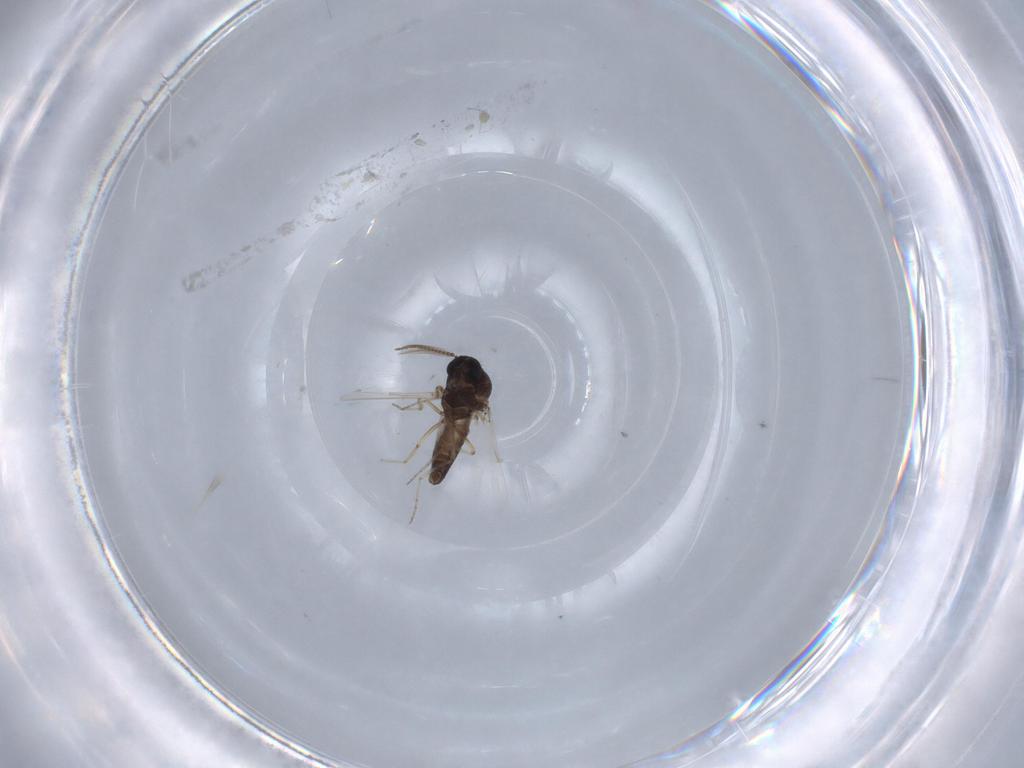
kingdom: Animalia
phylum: Arthropoda
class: Insecta
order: Diptera
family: Ceratopogonidae
